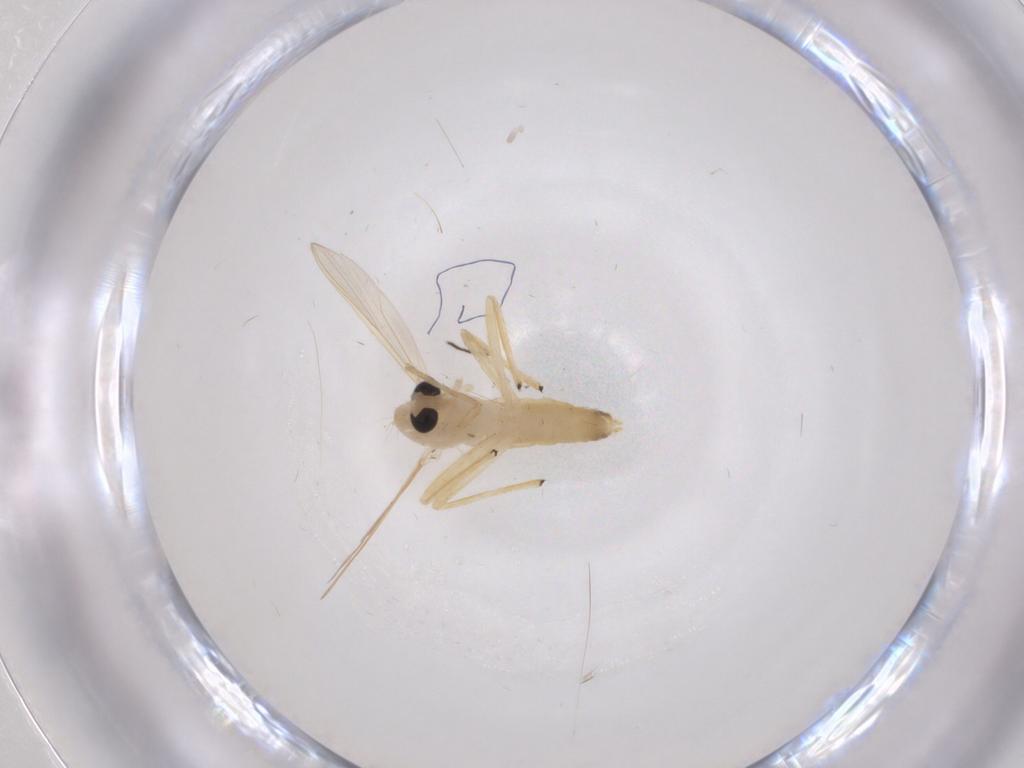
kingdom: Animalia
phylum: Arthropoda
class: Insecta
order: Diptera
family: Chironomidae
